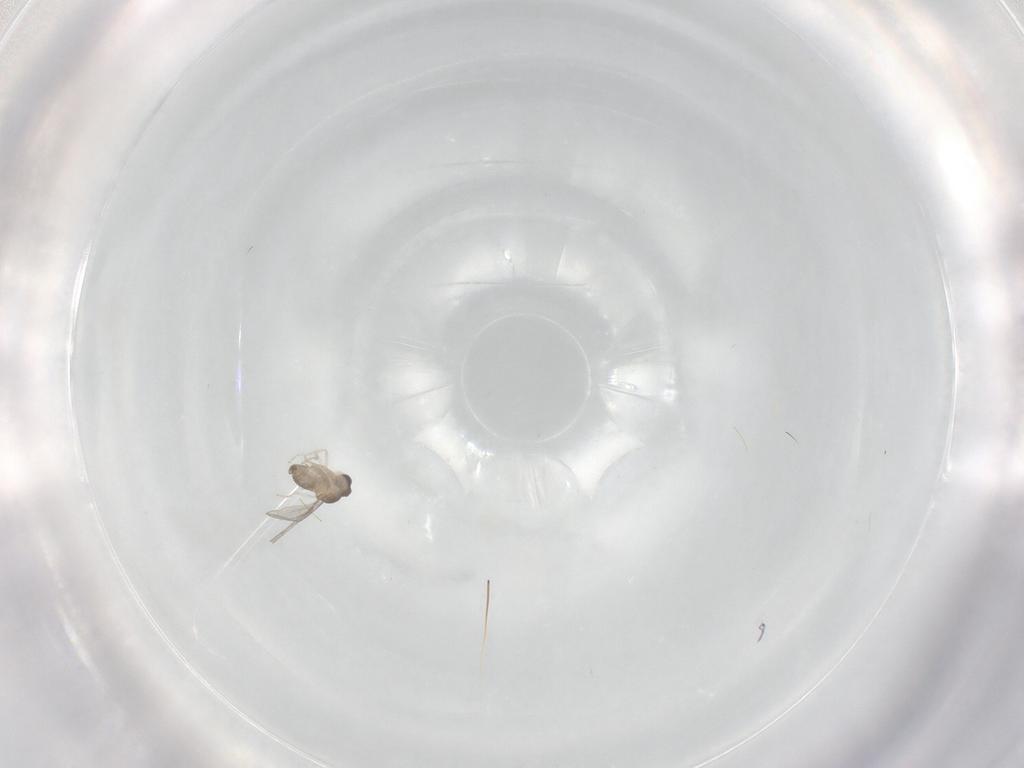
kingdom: Animalia
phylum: Arthropoda
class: Insecta
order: Diptera
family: Cecidomyiidae
